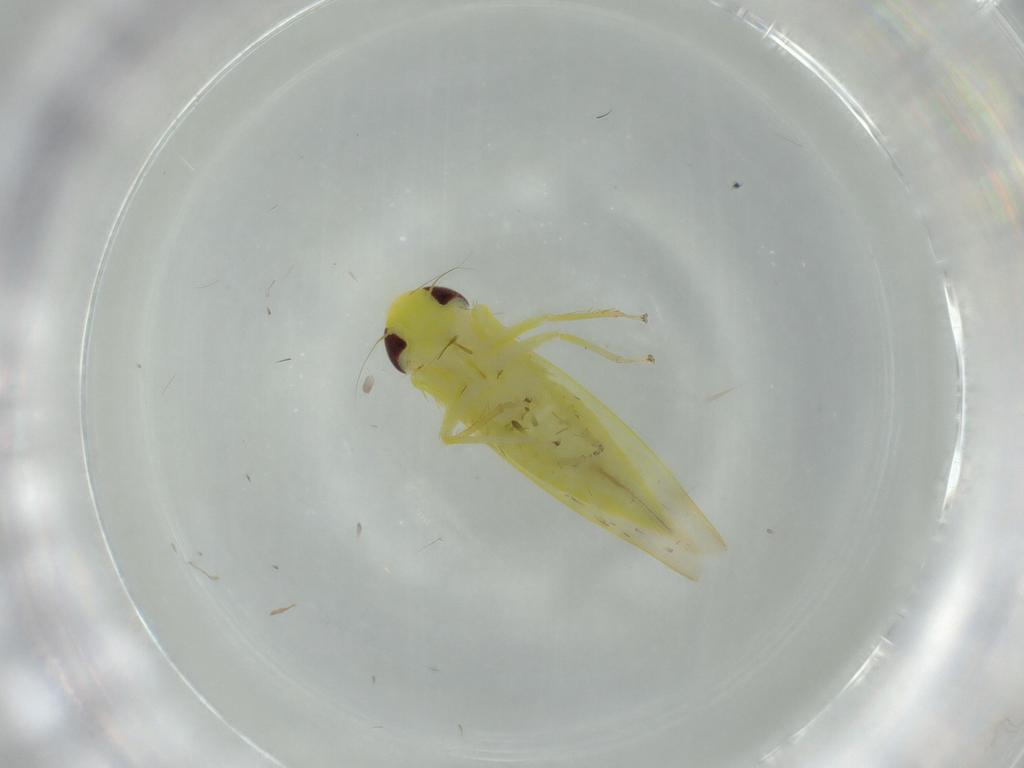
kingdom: Animalia
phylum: Arthropoda
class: Insecta
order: Hemiptera
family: Cicadellidae
